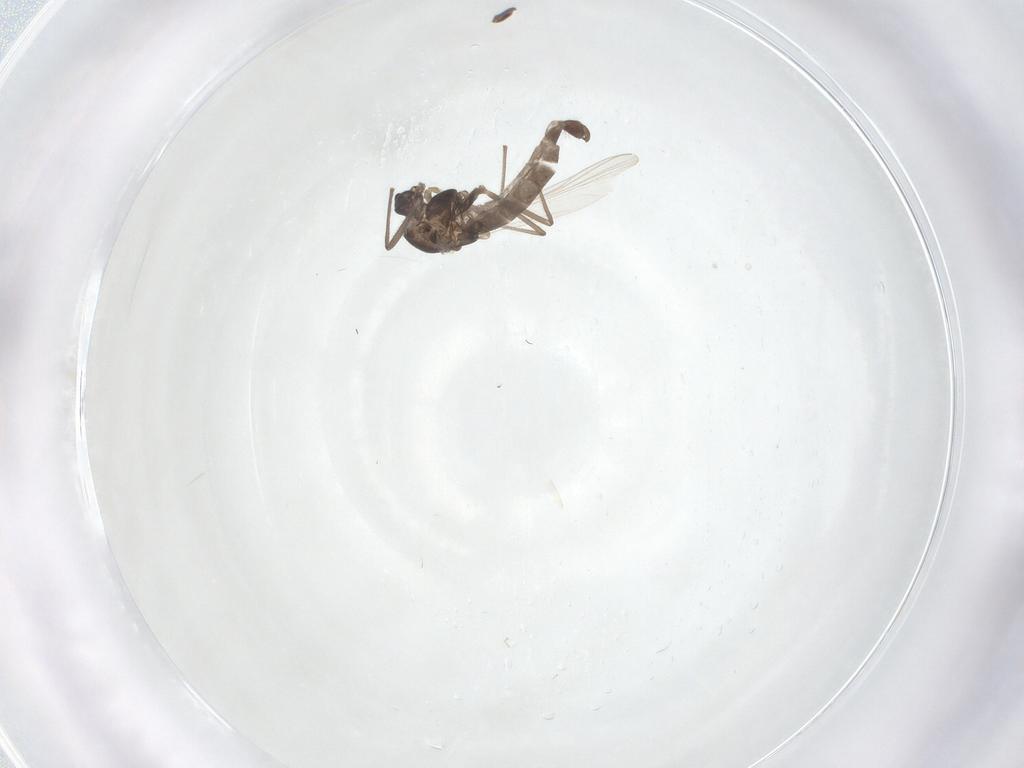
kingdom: Animalia
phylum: Arthropoda
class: Insecta
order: Diptera
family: Chironomidae
